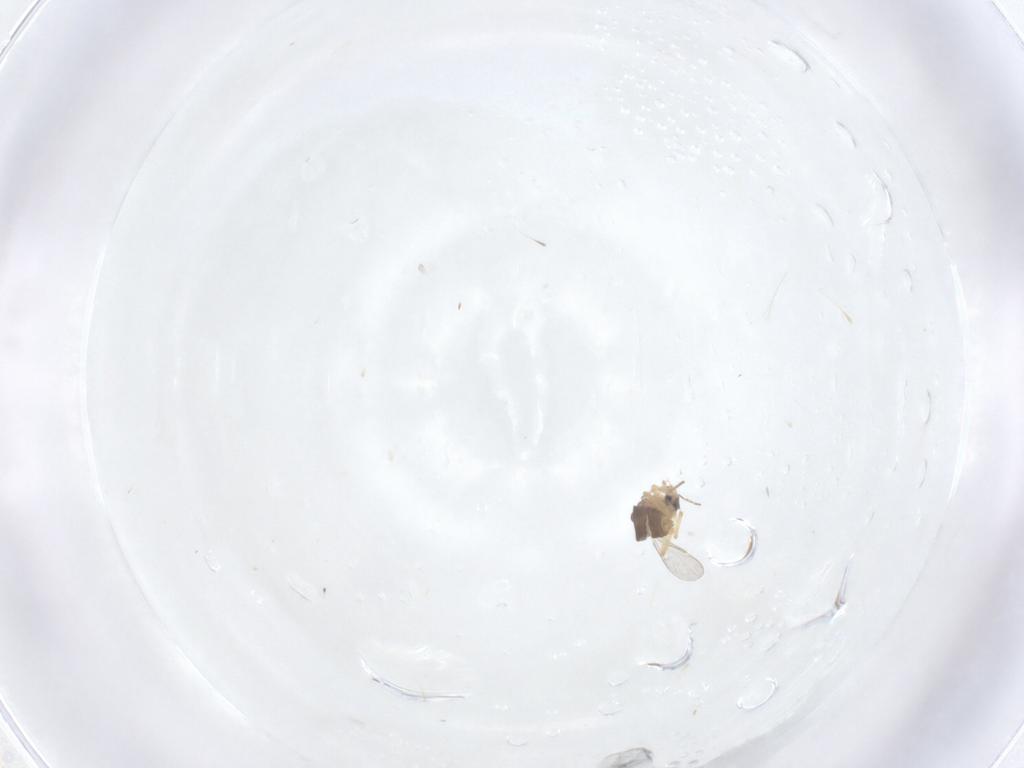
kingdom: Animalia
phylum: Arthropoda
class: Insecta
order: Diptera
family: Ceratopogonidae
